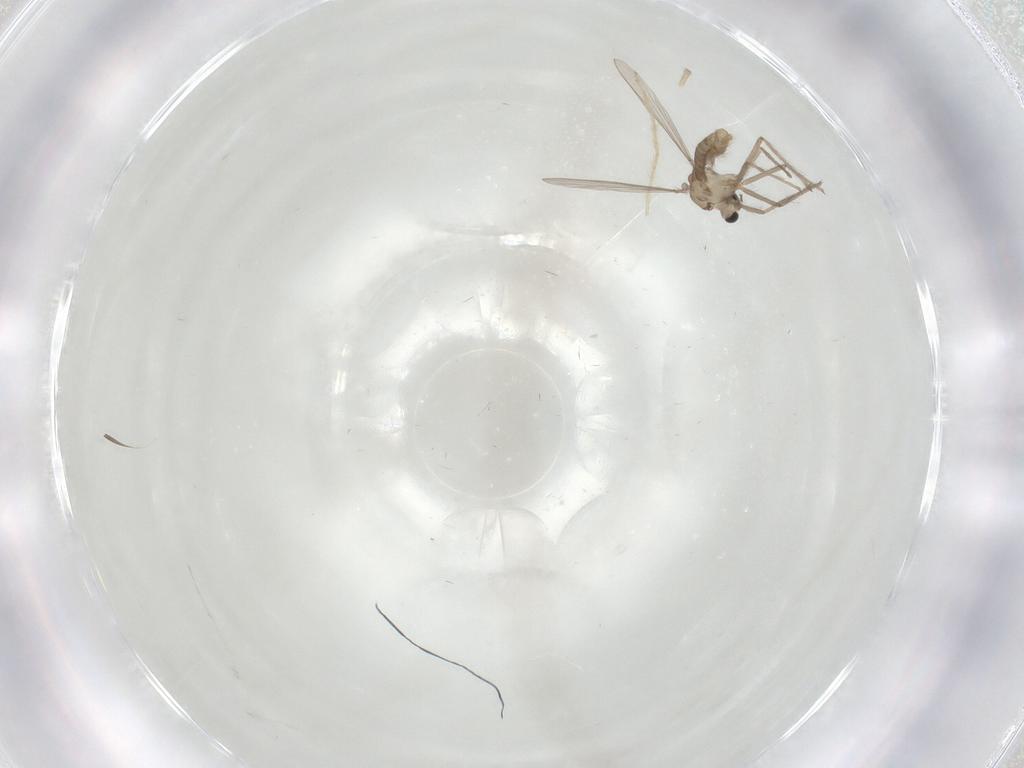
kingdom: Animalia
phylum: Arthropoda
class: Insecta
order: Diptera
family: Chironomidae
